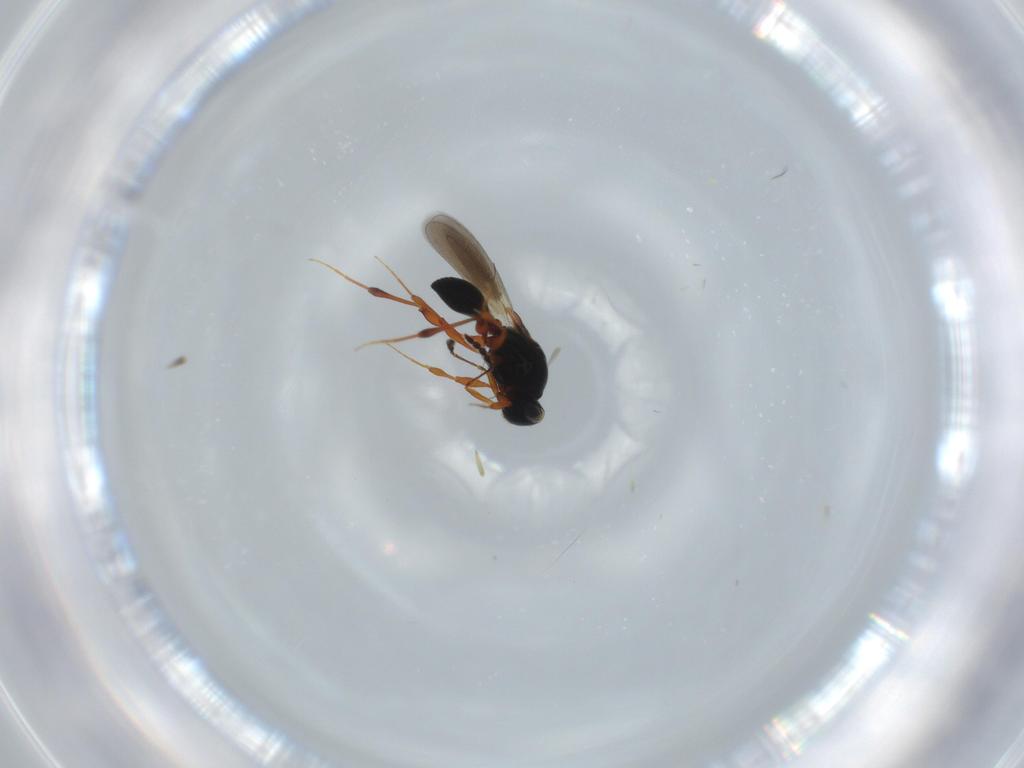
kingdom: Animalia
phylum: Arthropoda
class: Insecta
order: Hymenoptera
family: Platygastridae
